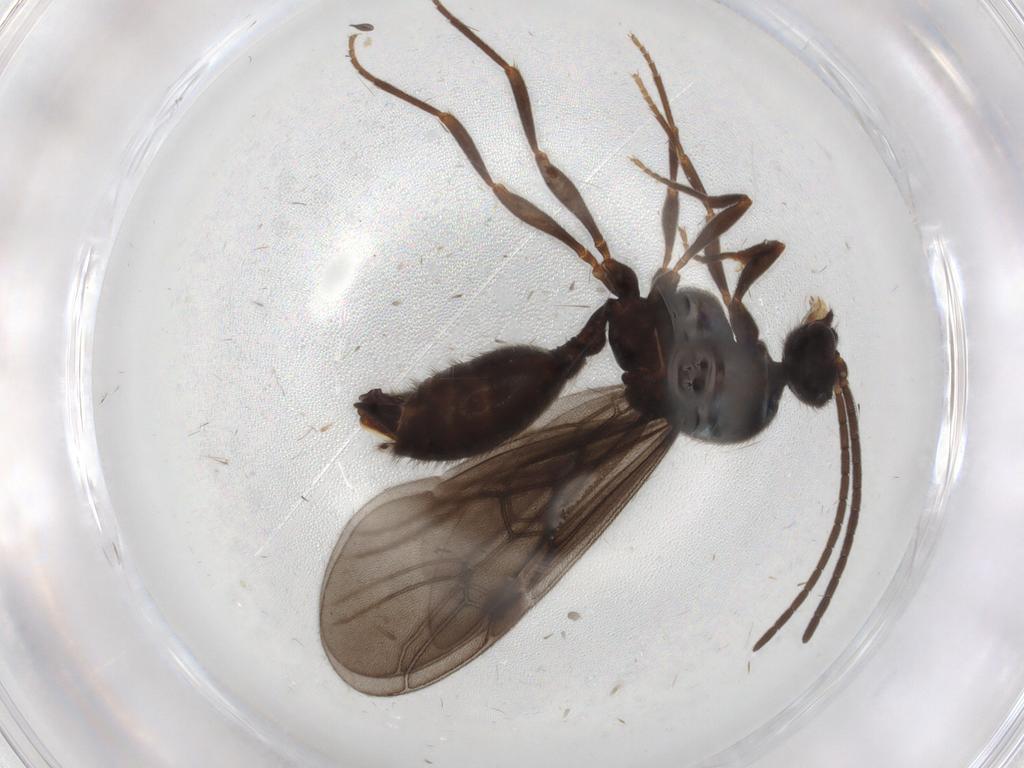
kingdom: Animalia
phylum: Arthropoda
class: Insecta
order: Hymenoptera
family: Formicidae
